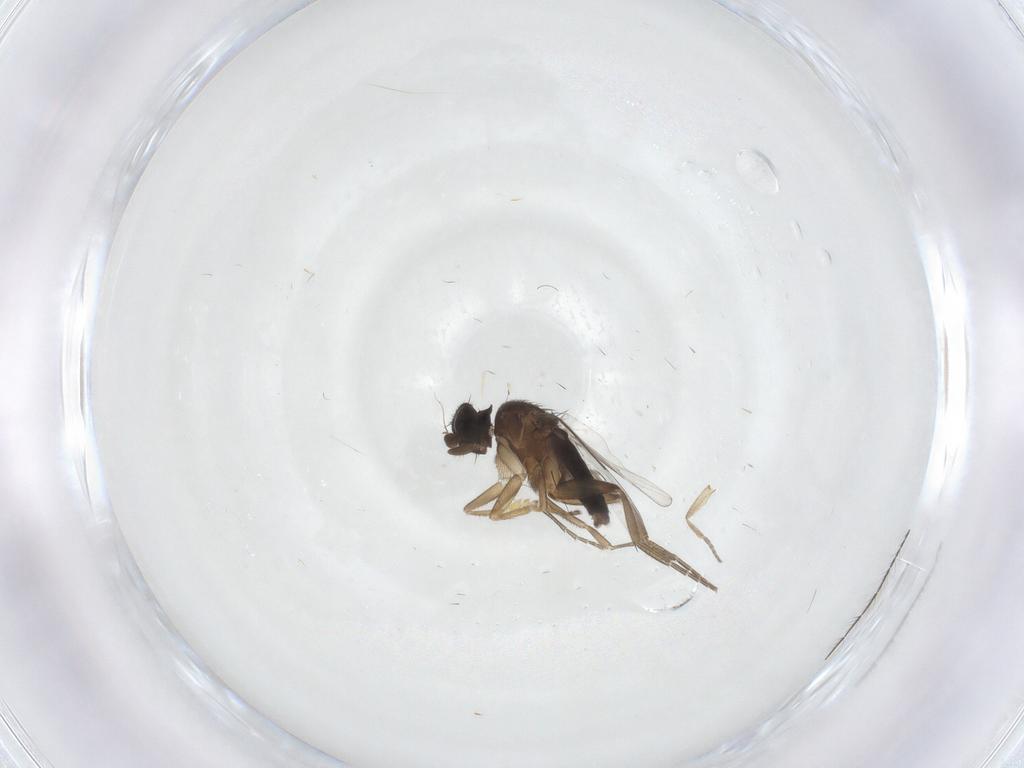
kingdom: Animalia
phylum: Arthropoda
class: Insecta
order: Diptera
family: Phoridae
